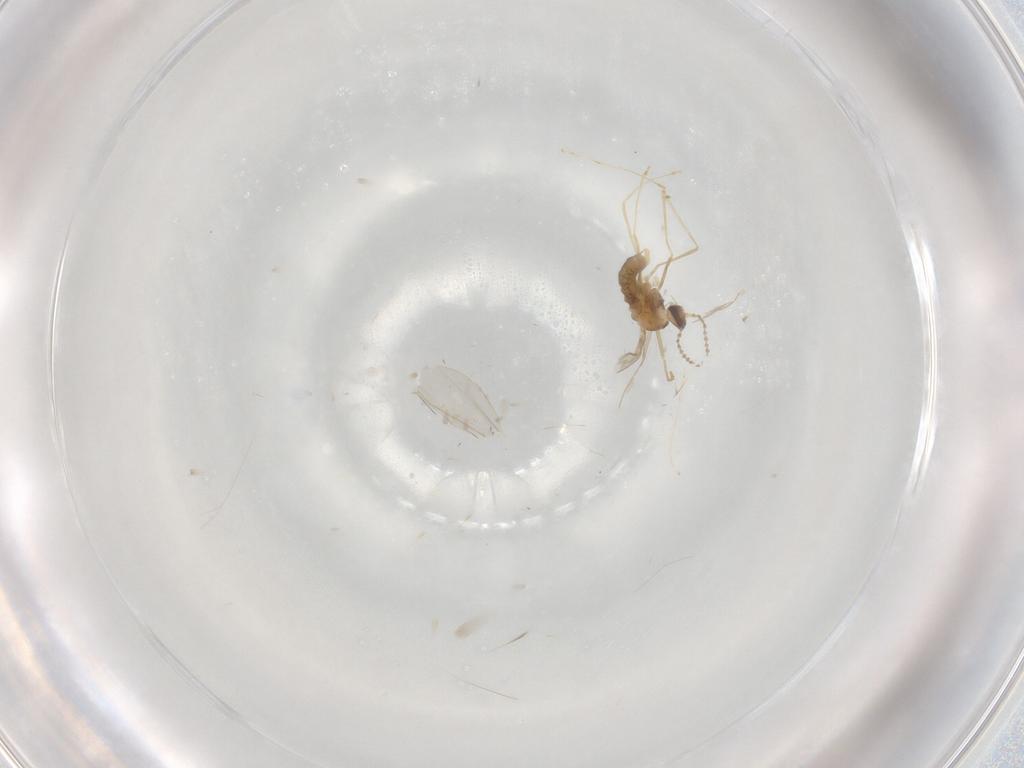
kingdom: Animalia
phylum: Arthropoda
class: Insecta
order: Diptera
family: Cecidomyiidae
